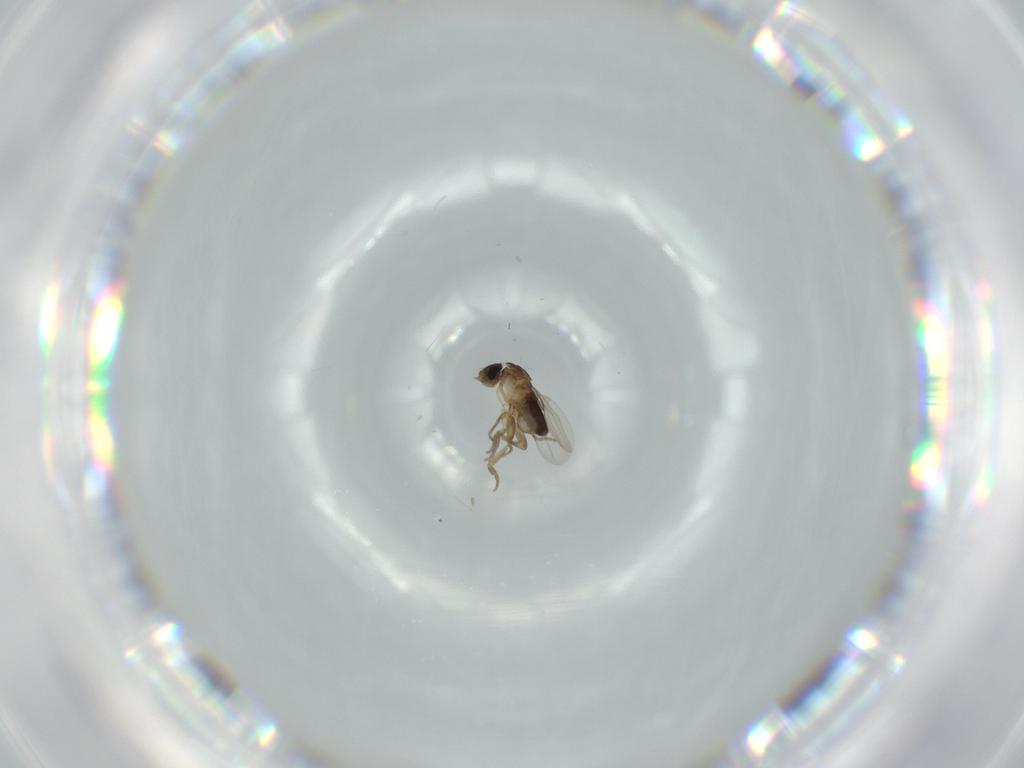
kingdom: Animalia
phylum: Arthropoda
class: Insecta
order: Diptera
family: Phoridae
